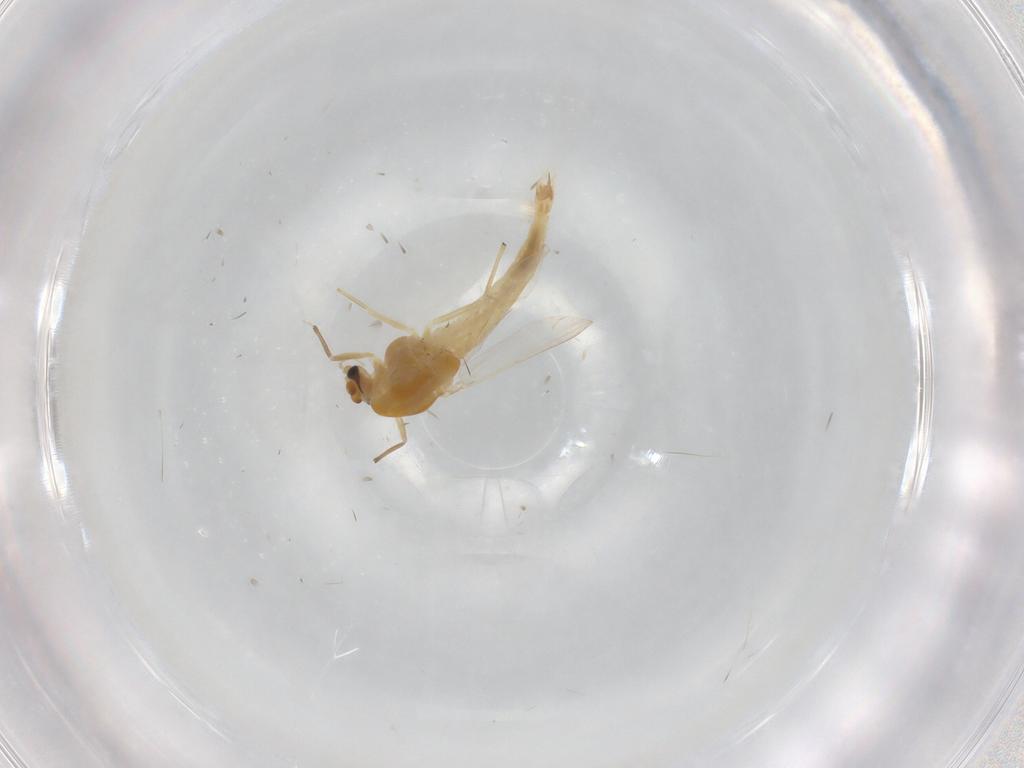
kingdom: Animalia
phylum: Arthropoda
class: Insecta
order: Diptera
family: Chironomidae
